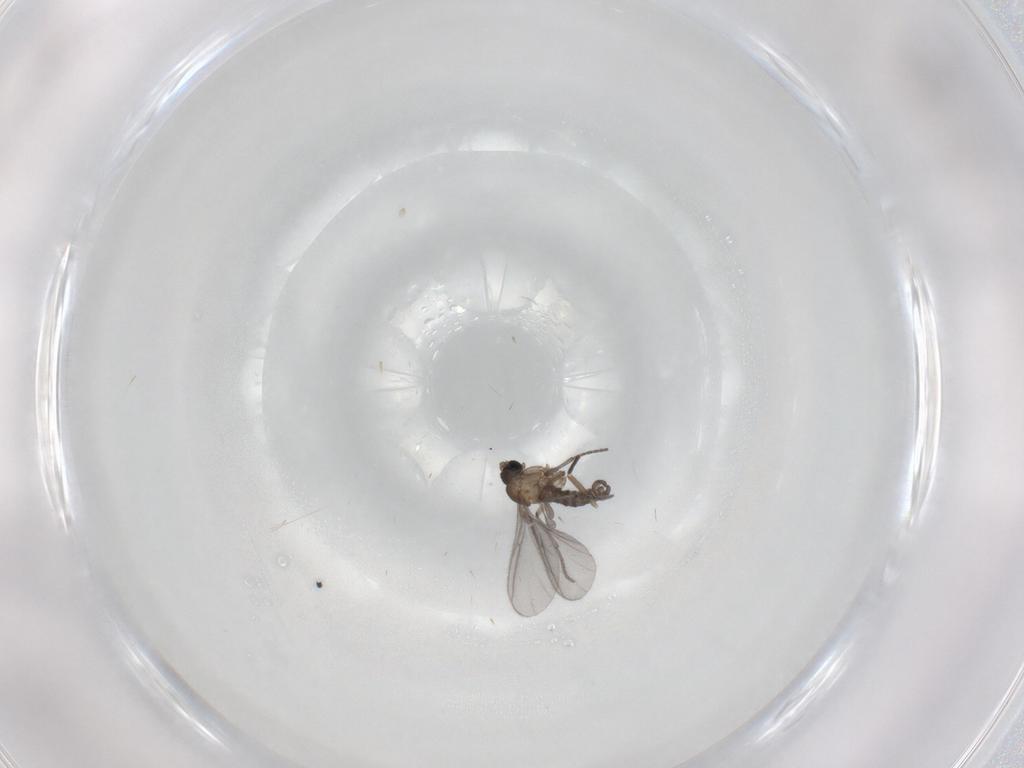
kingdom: Animalia
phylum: Arthropoda
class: Insecta
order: Diptera
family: Sciaridae
